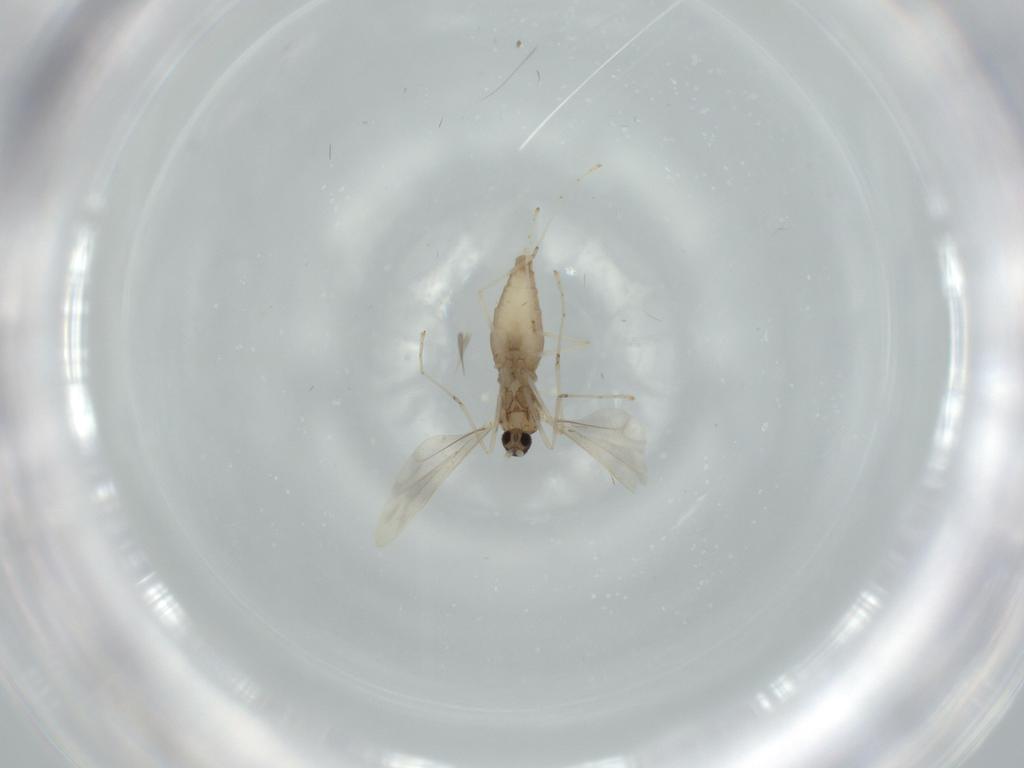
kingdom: Animalia
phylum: Arthropoda
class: Insecta
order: Diptera
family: Cecidomyiidae
